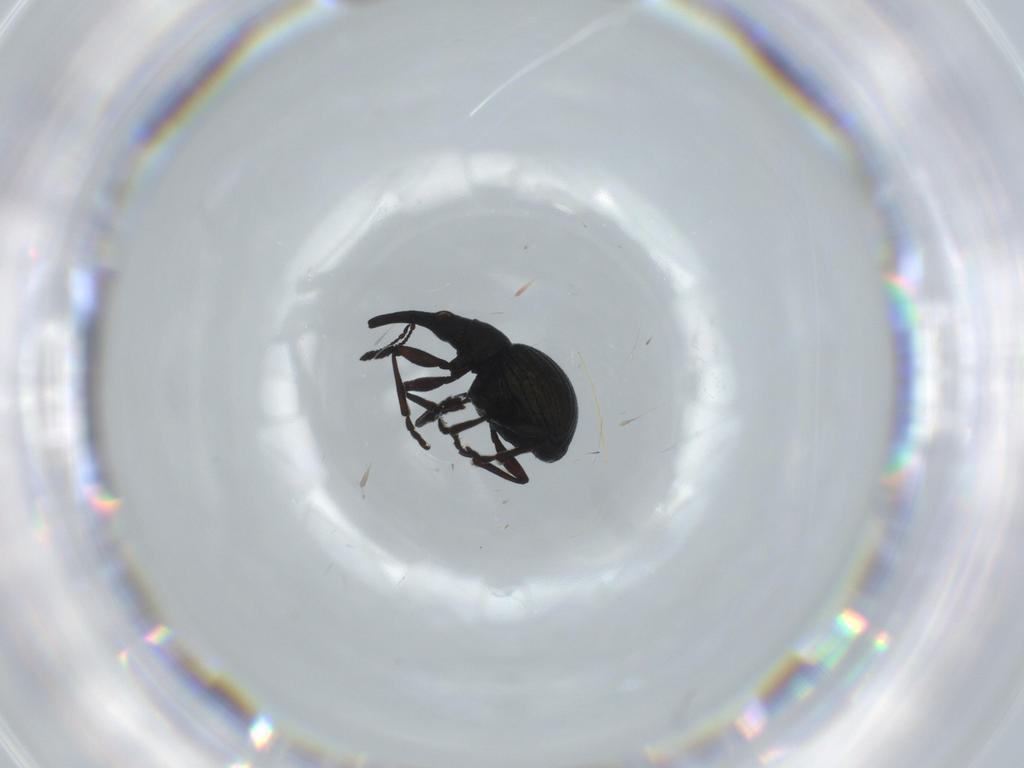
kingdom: Animalia
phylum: Arthropoda
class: Insecta
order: Coleoptera
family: Brentidae
